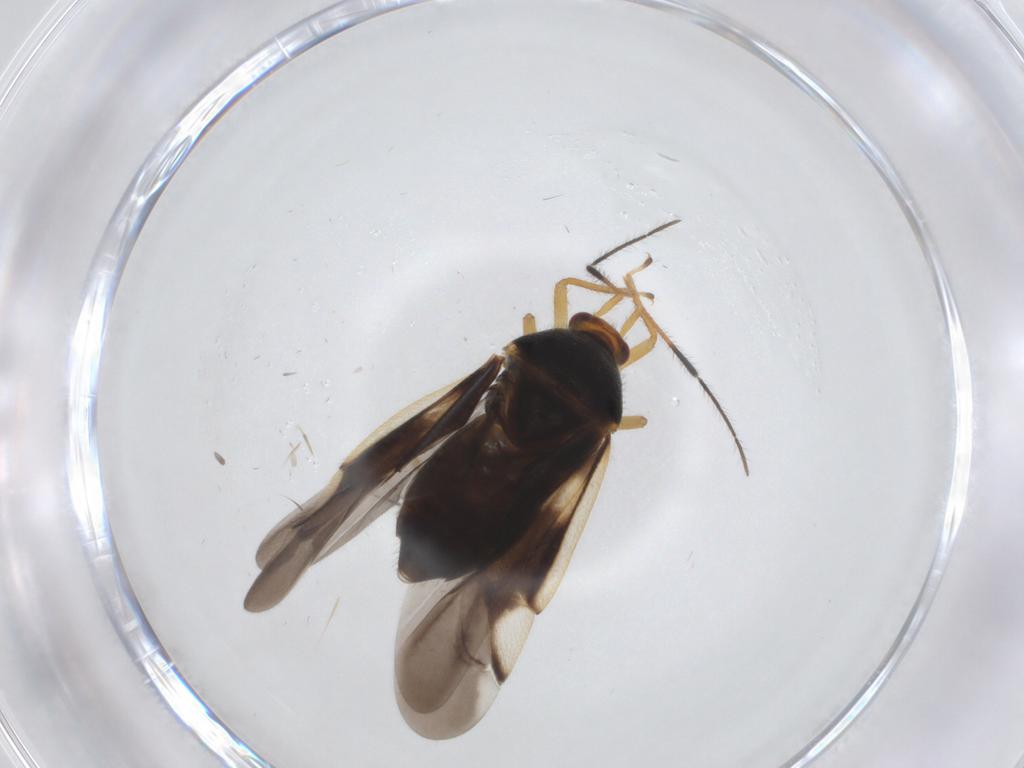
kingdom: Animalia
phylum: Arthropoda
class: Insecta
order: Hemiptera
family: Miridae
